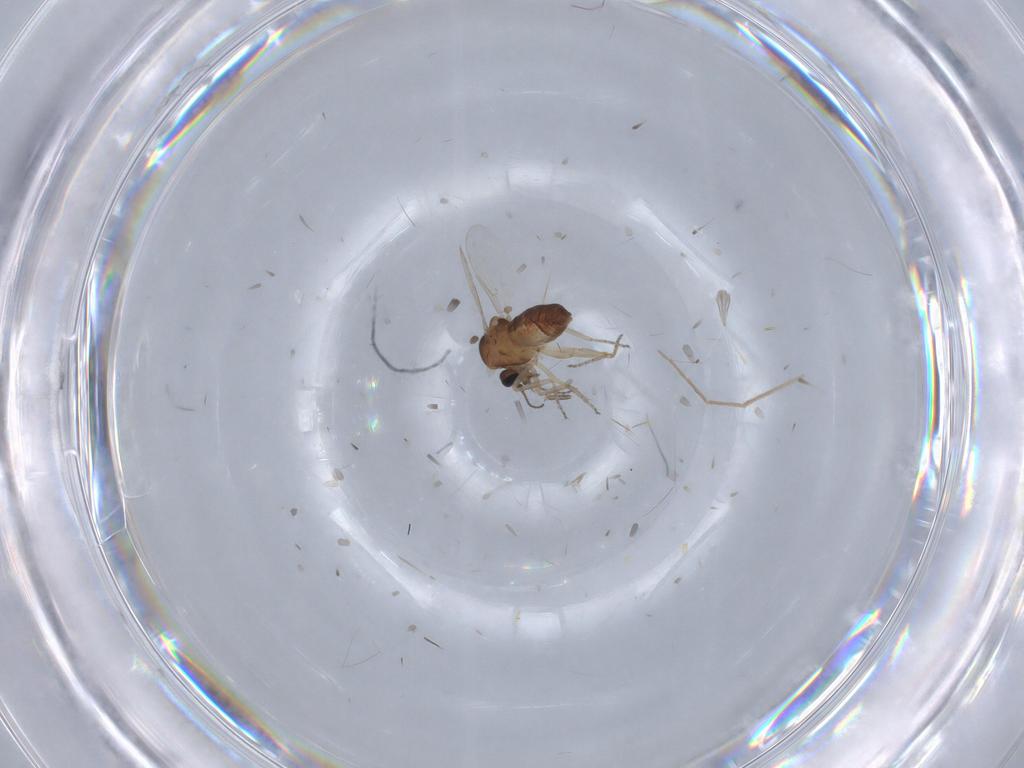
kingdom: Animalia
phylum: Arthropoda
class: Insecta
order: Diptera
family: Ceratopogonidae
